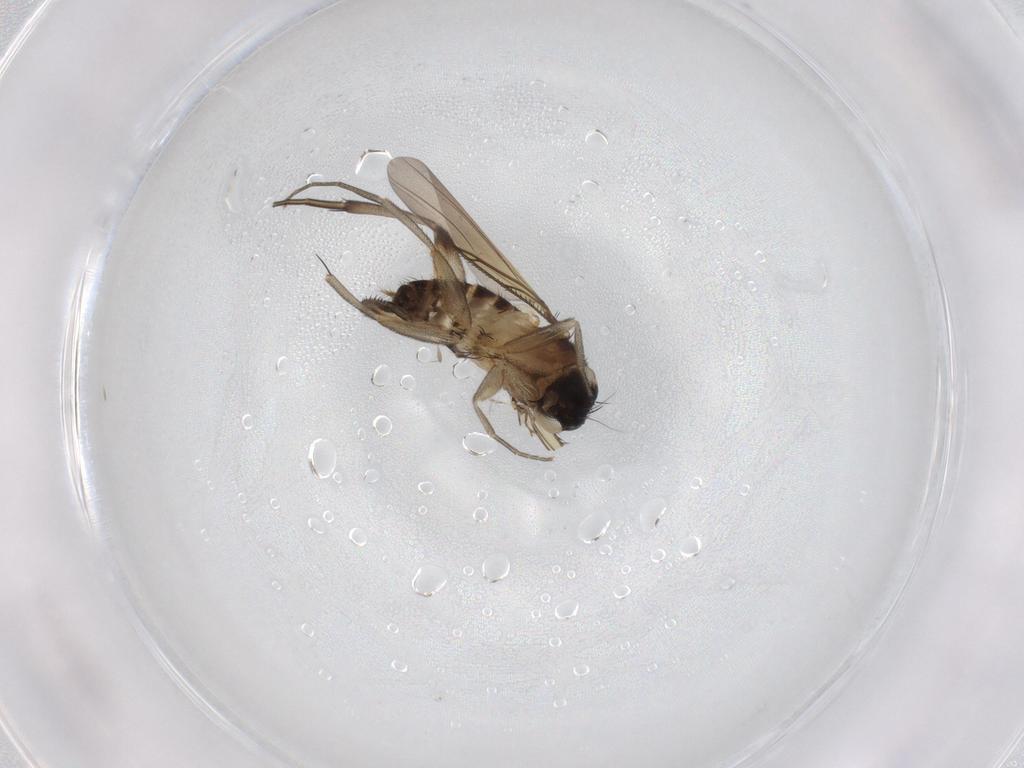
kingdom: Animalia
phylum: Arthropoda
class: Insecta
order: Diptera
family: Phoridae
